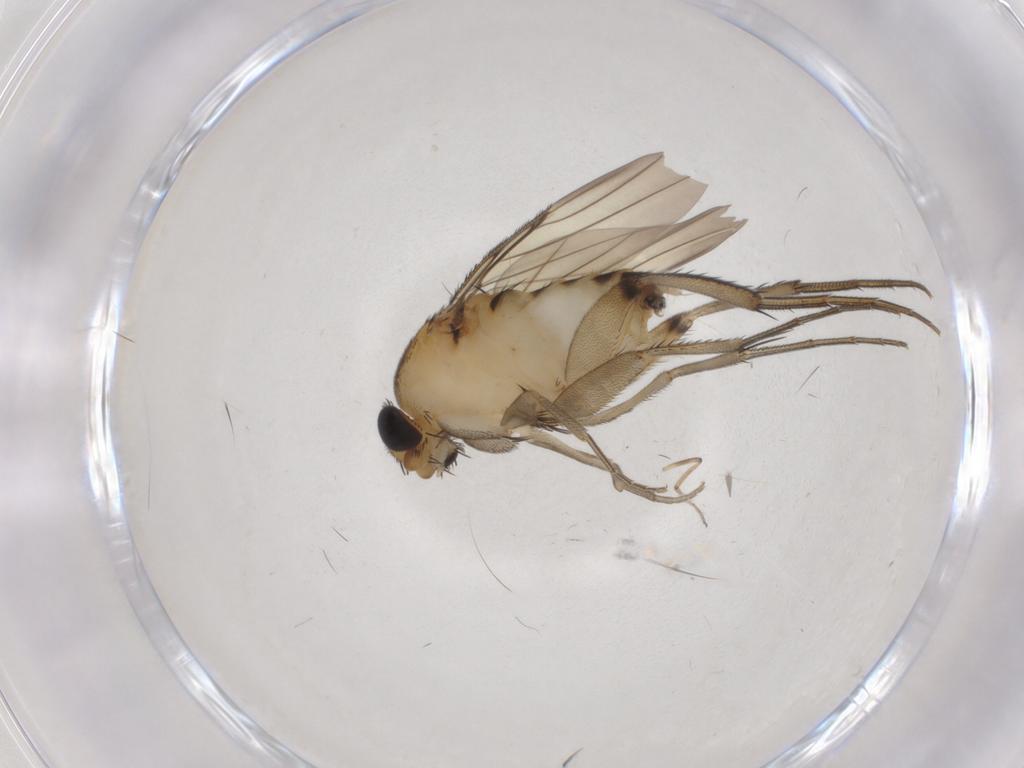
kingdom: Animalia
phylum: Arthropoda
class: Insecta
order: Diptera
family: Phoridae
